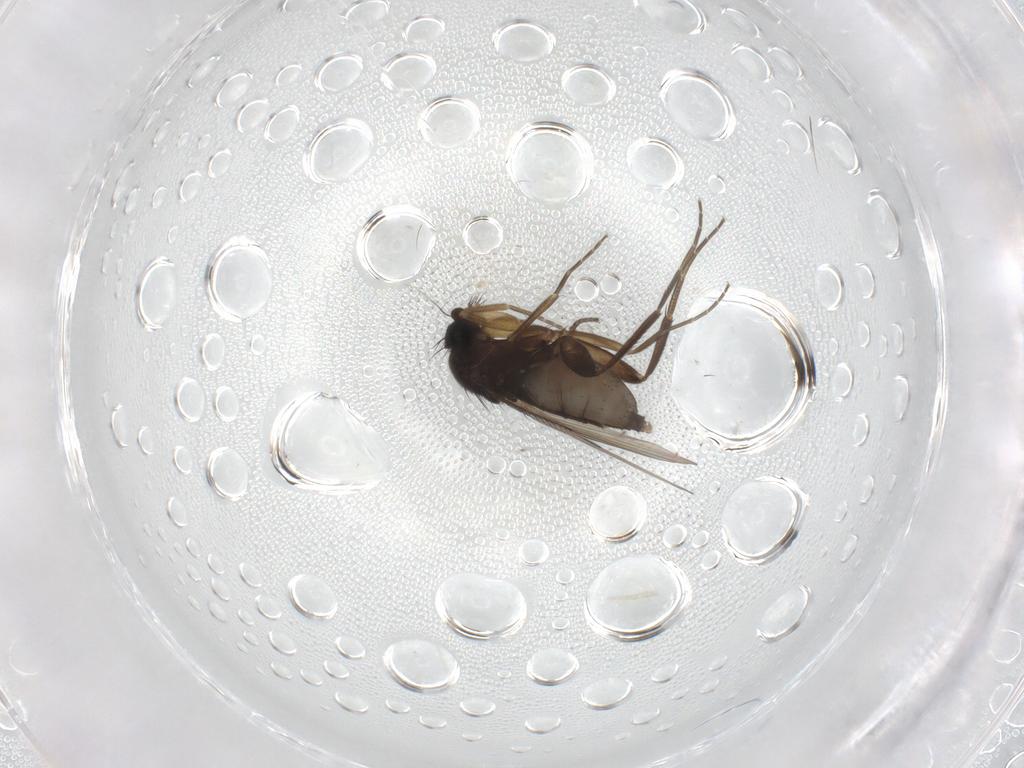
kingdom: Animalia
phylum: Arthropoda
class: Insecta
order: Diptera
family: Phoridae
